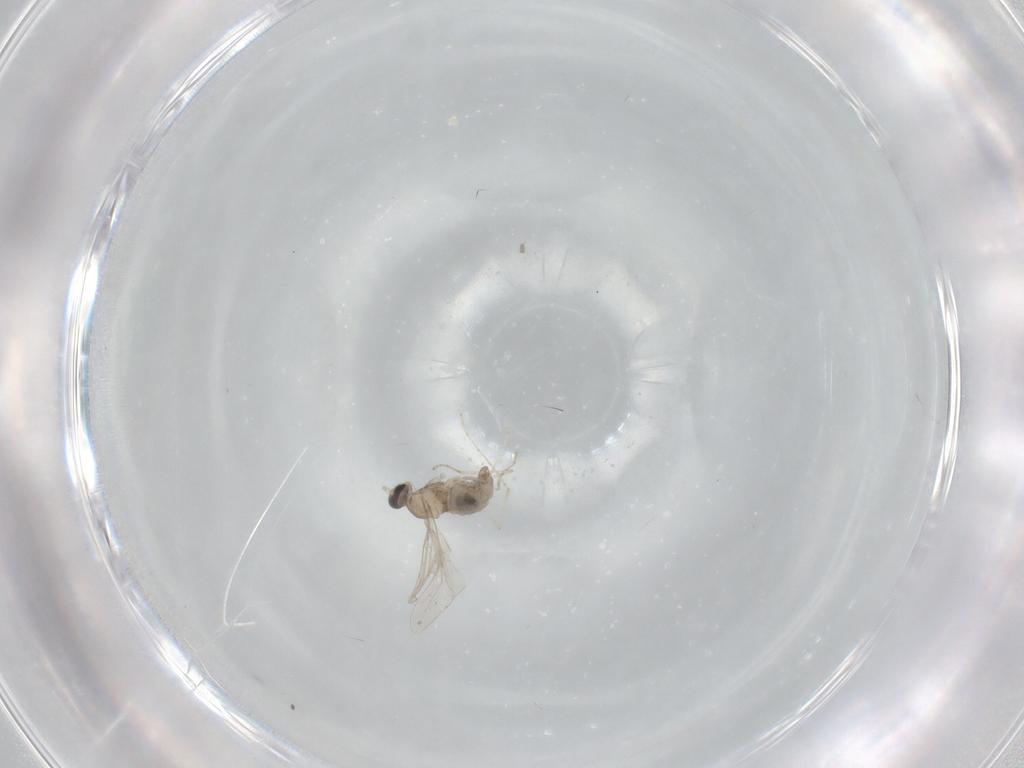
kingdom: Animalia
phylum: Arthropoda
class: Insecta
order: Diptera
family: Cecidomyiidae
